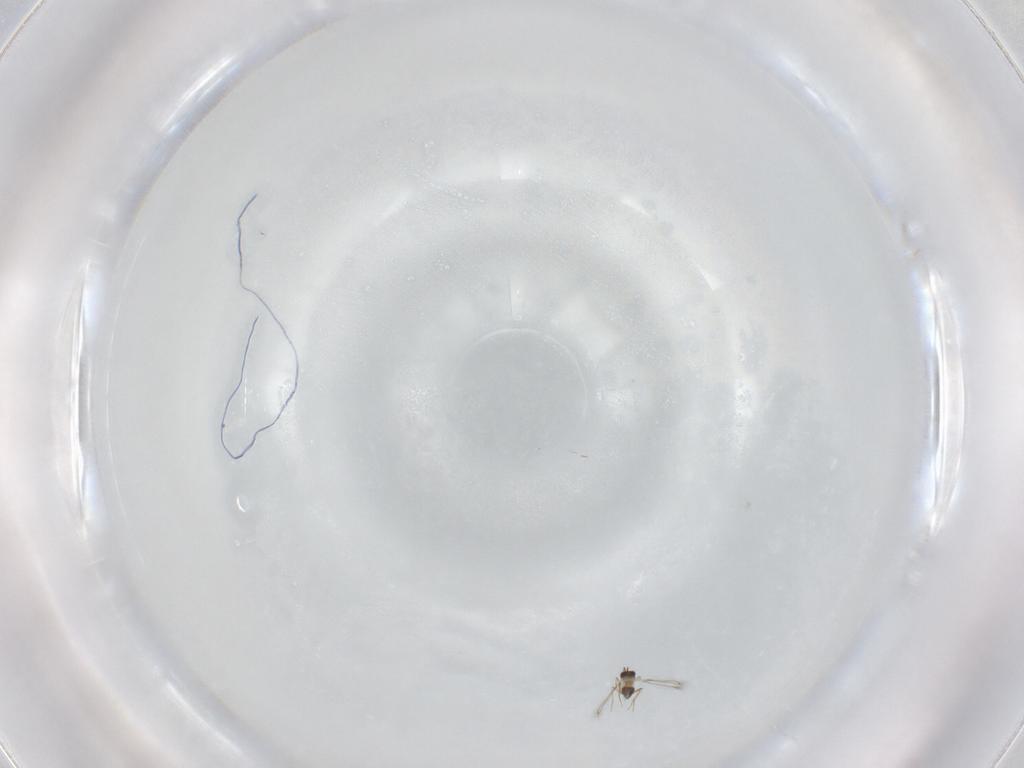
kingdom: Animalia
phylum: Arthropoda
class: Insecta
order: Hymenoptera
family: Mymaridae
